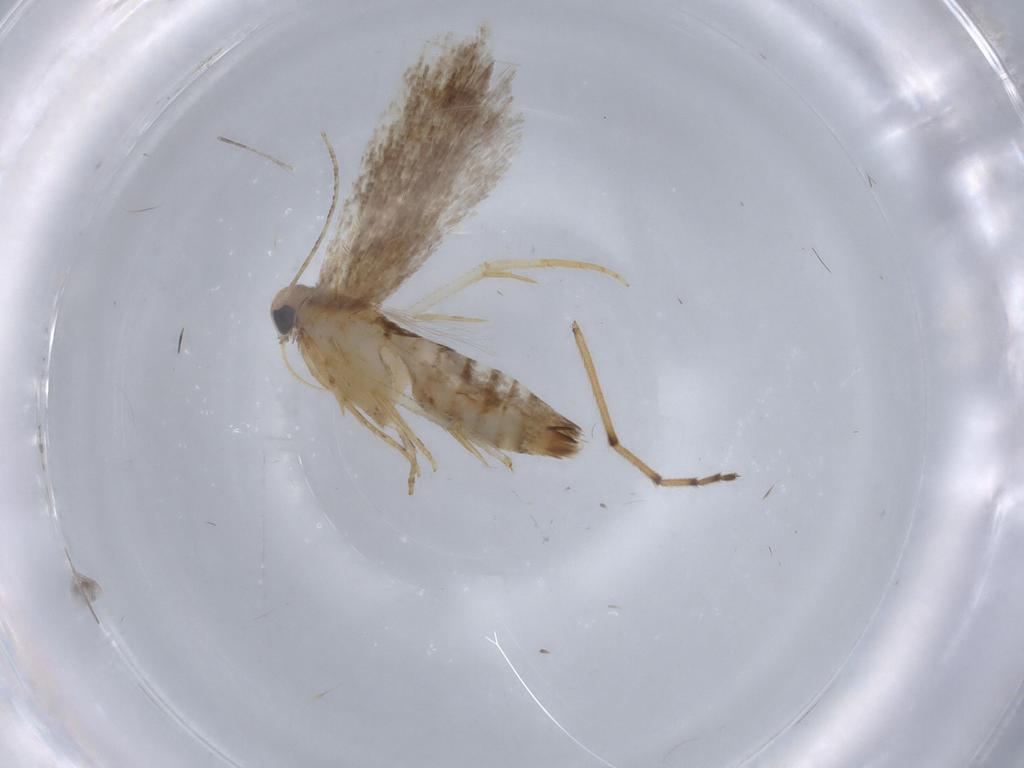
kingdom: Animalia
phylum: Arthropoda
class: Insecta
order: Lepidoptera
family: Gelechiidae
